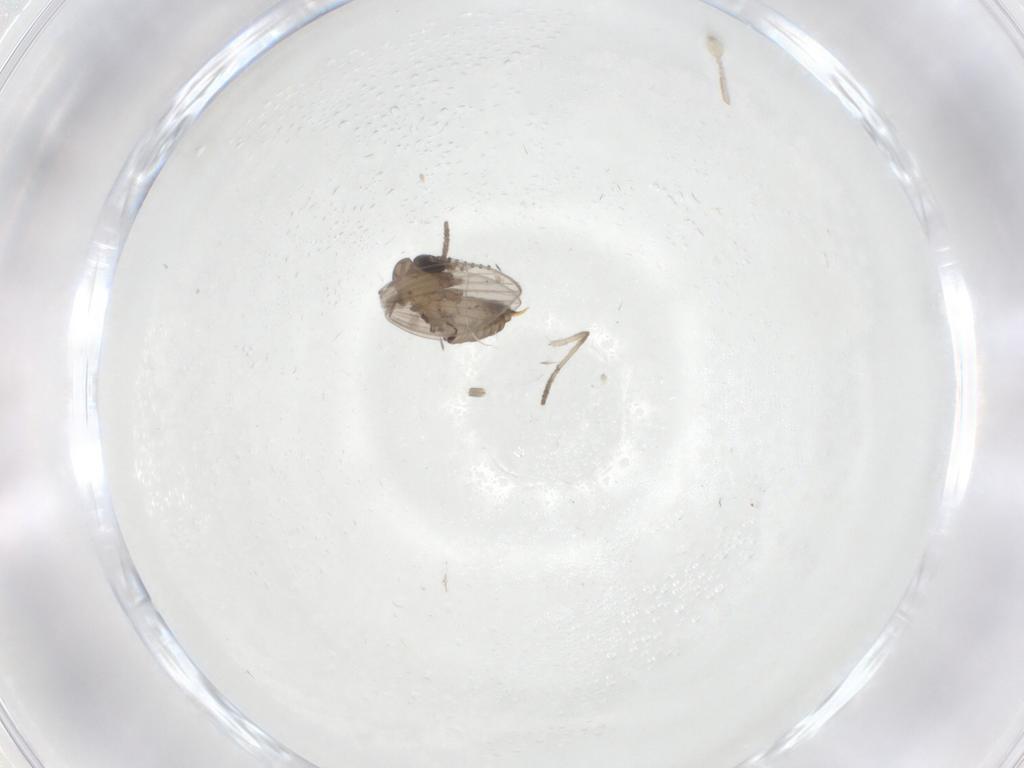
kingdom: Animalia
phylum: Arthropoda
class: Insecta
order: Diptera
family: Psychodidae
